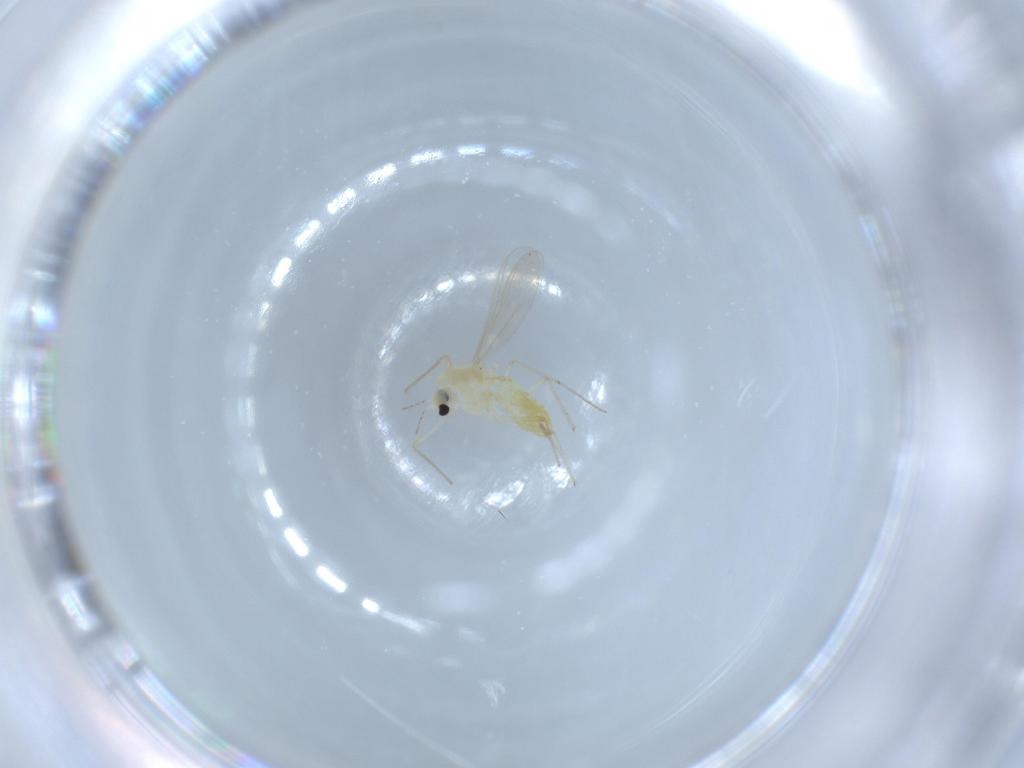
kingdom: Animalia
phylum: Arthropoda
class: Insecta
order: Diptera
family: Chironomidae
